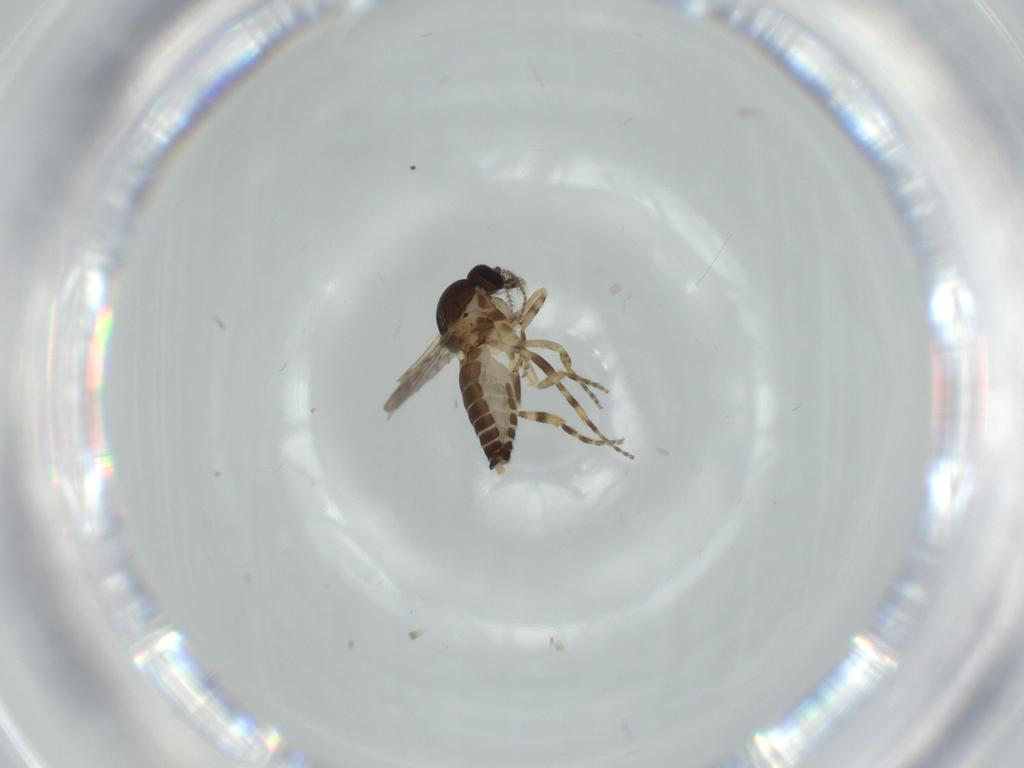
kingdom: Animalia
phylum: Arthropoda
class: Insecta
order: Diptera
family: Ceratopogonidae
